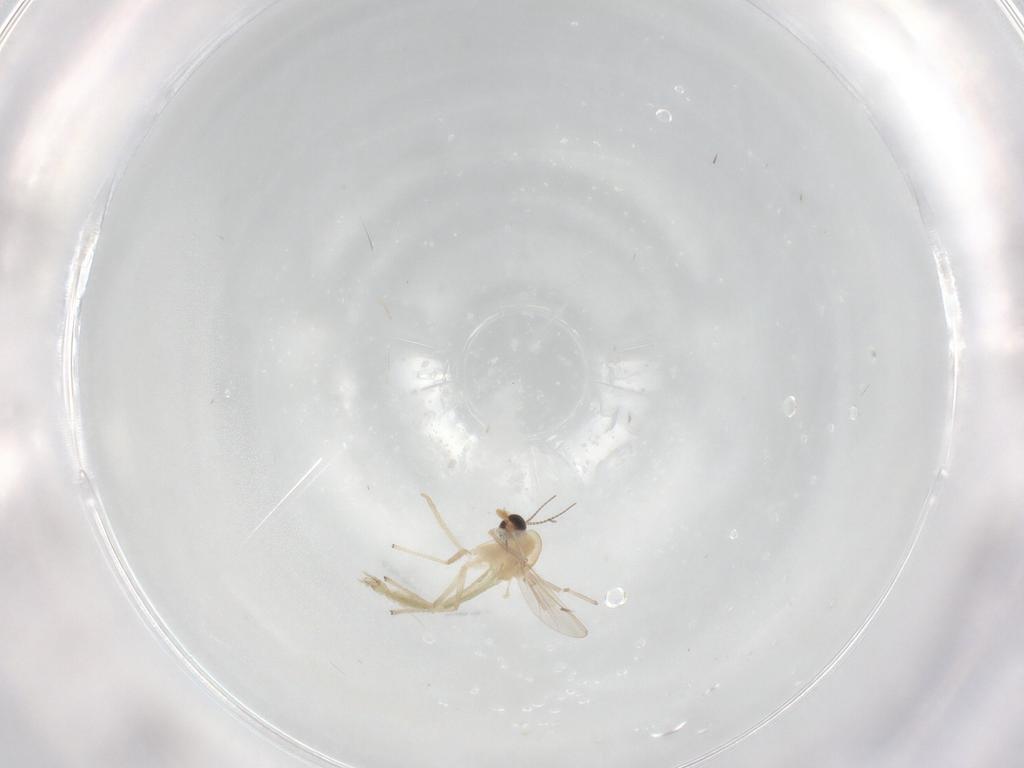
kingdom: Animalia
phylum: Arthropoda
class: Insecta
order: Diptera
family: Chironomidae
